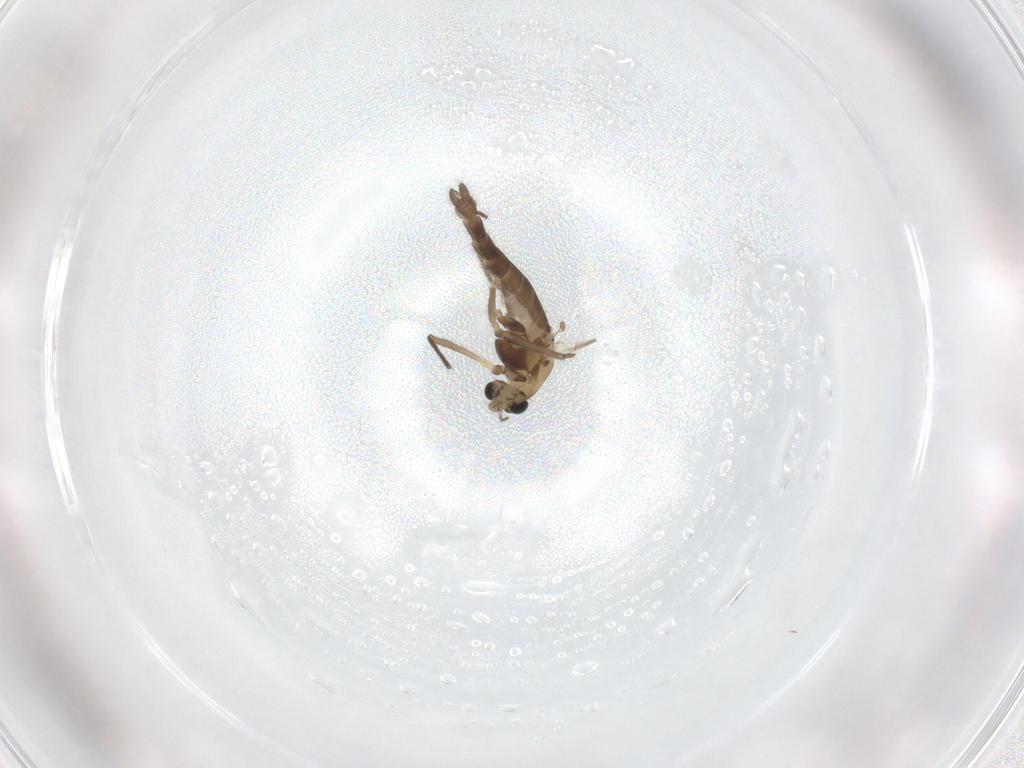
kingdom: Animalia
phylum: Arthropoda
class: Insecta
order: Diptera
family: Chironomidae
